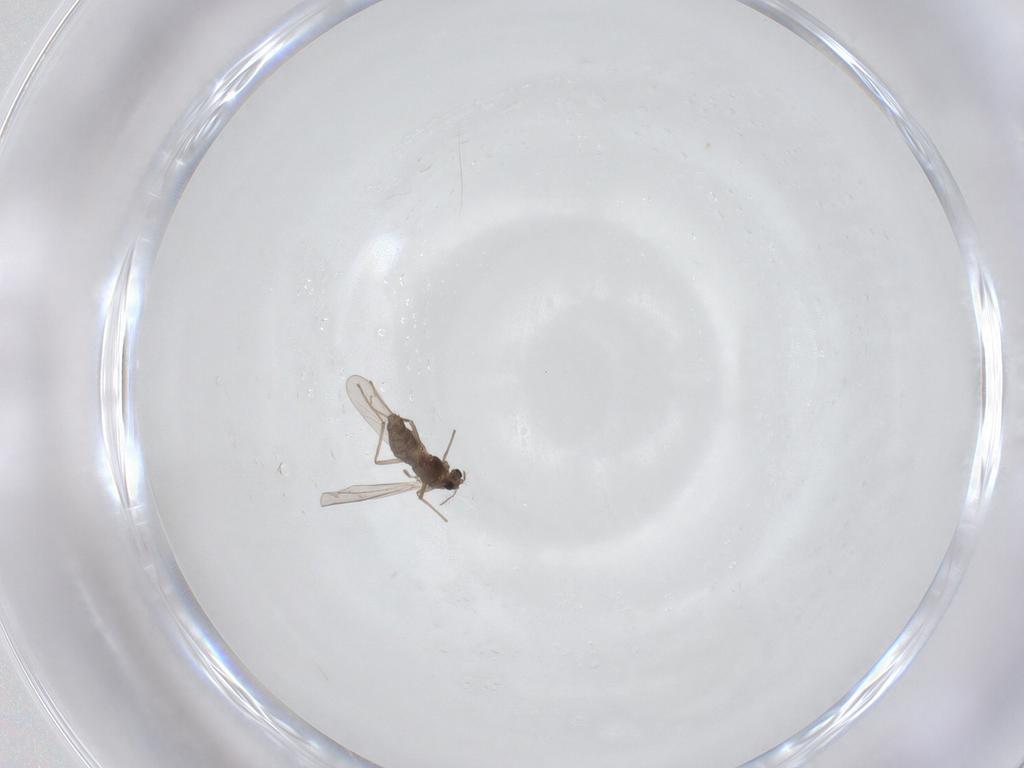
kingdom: Animalia
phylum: Arthropoda
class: Insecta
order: Diptera
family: Chironomidae
